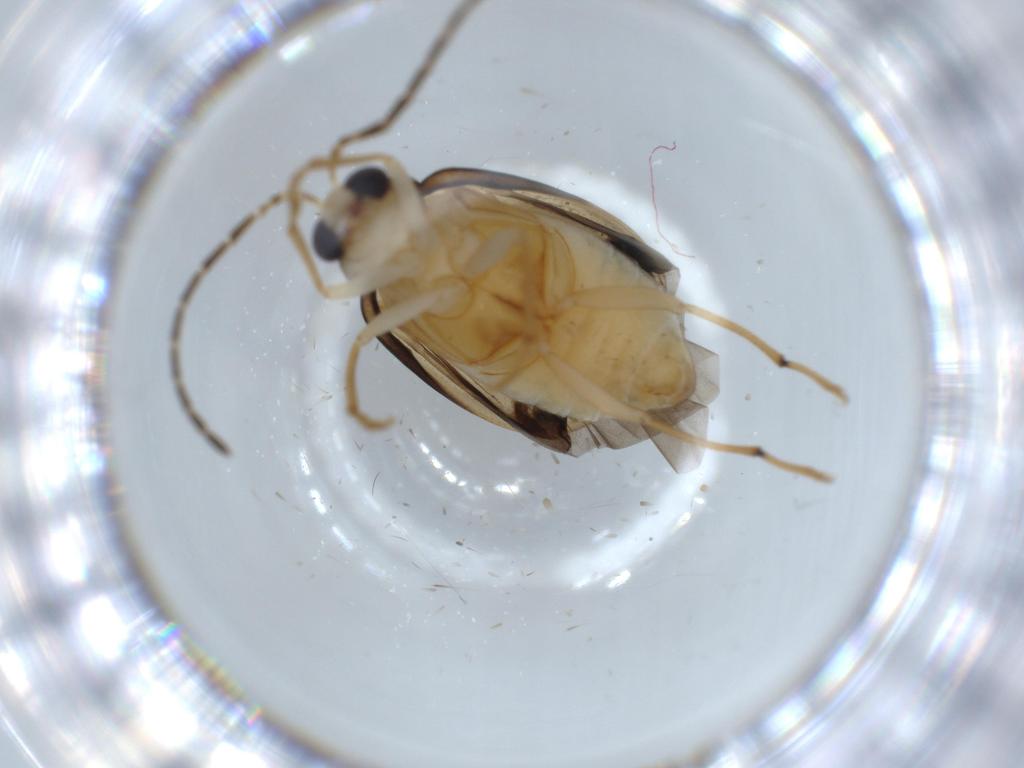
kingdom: Animalia
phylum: Arthropoda
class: Insecta
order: Coleoptera
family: Chrysomelidae
